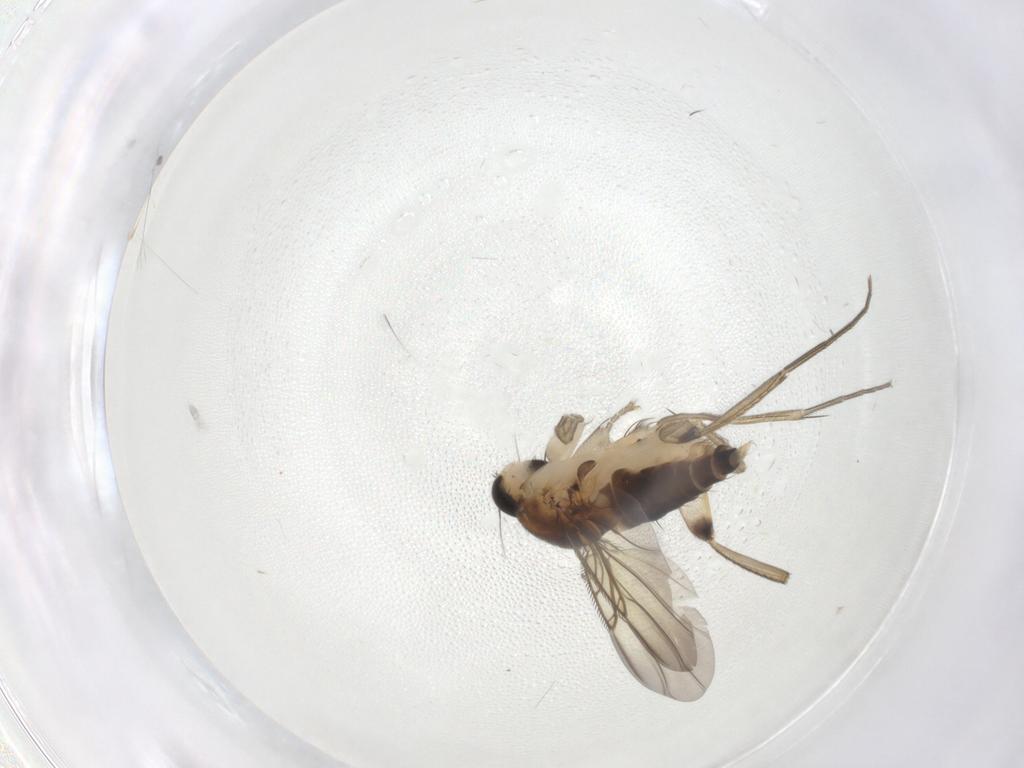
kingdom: Animalia
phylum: Arthropoda
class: Insecta
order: Diptera
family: Phoridae
